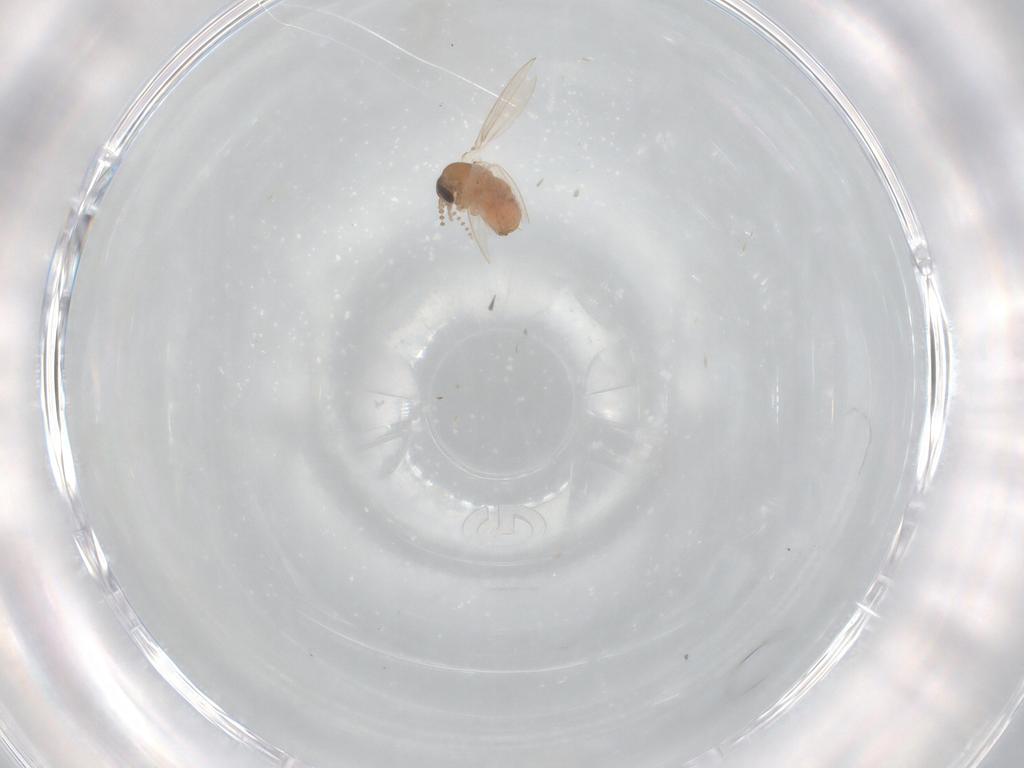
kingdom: Animalia
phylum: Arthropoda
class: Insecta
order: Diptera
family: Psychodidae
